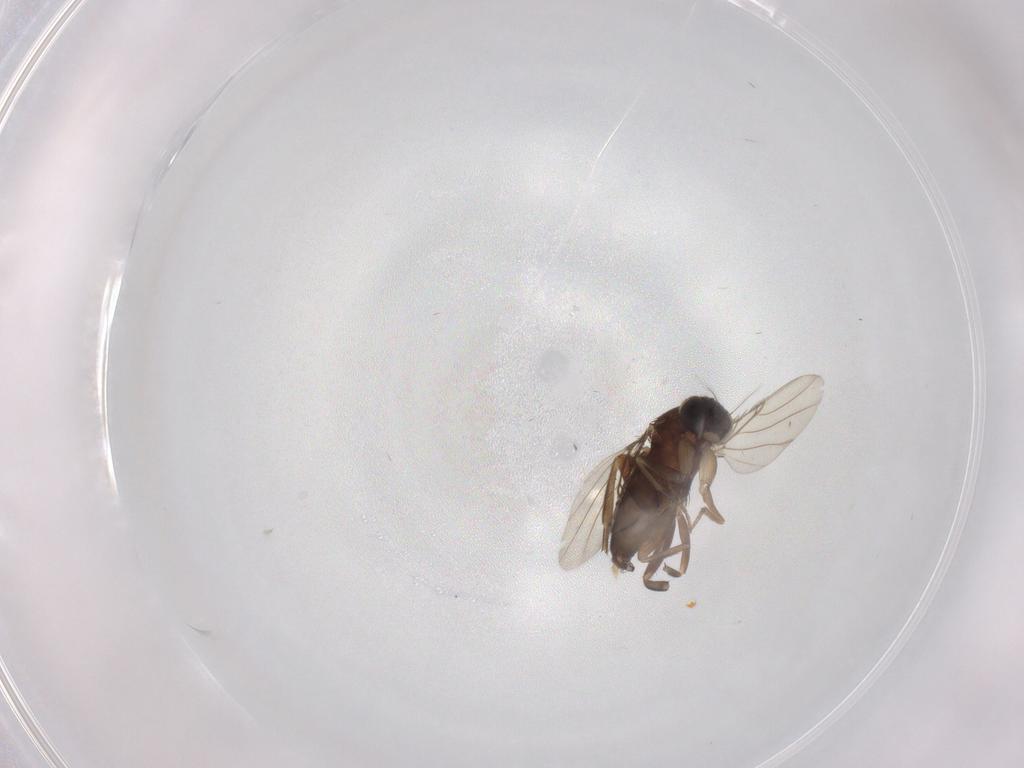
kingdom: Animalia
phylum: Arthropoda
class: Insecta
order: Diptera
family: Phoridae
